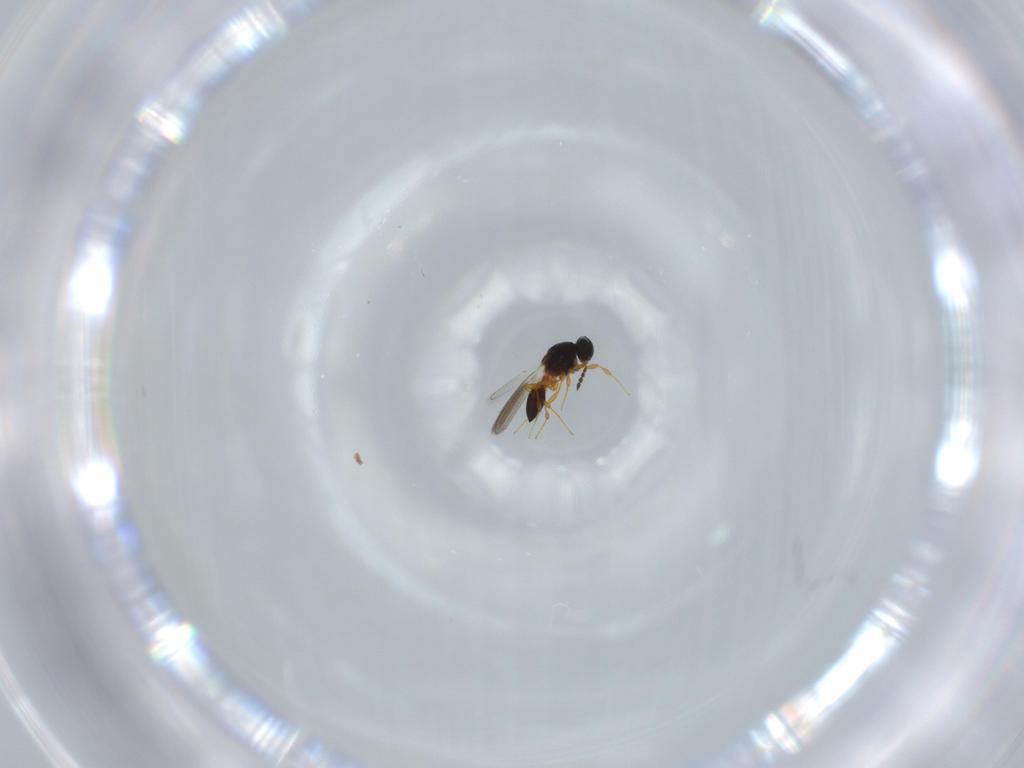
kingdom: Animalia
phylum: Arthropoda
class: Insecta
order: Hymenoptera
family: Platygastridae
